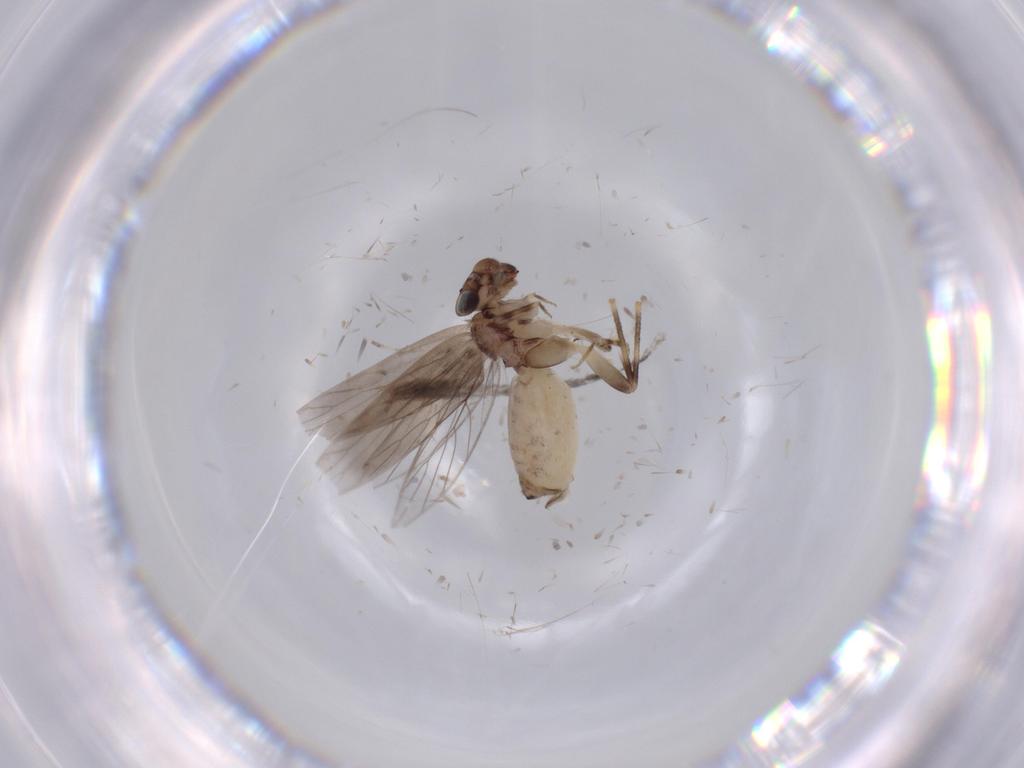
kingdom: Animalia
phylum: Arthropoda
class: Insecta
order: Psocodea
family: Lepidopsocidae
